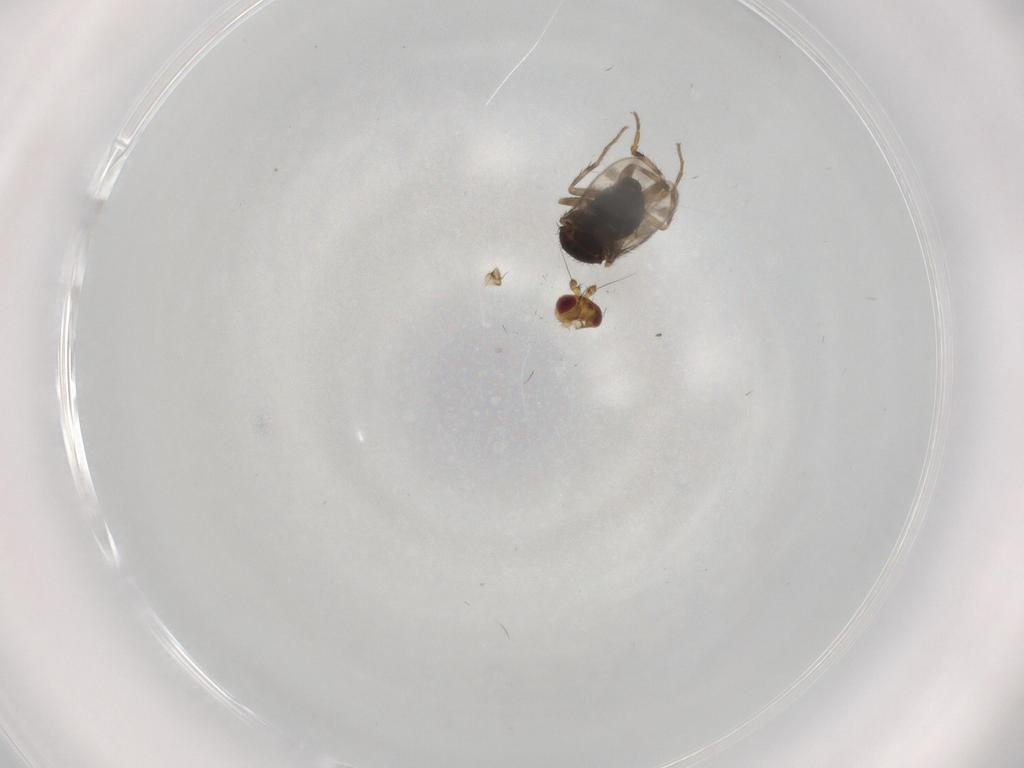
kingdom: Animalia
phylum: Arthropoda
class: Insecta
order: Diptera
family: Sphaeroceridae
